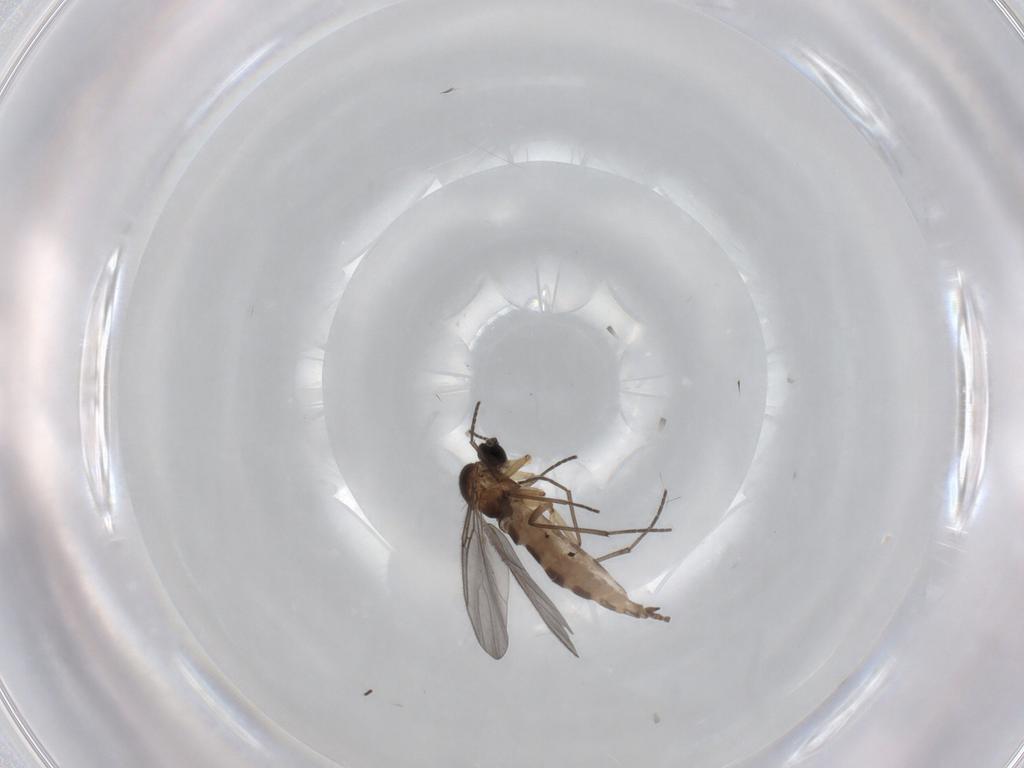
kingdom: Animalia
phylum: Arthropoda
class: Insecta
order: Diptera
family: Sciaridae
